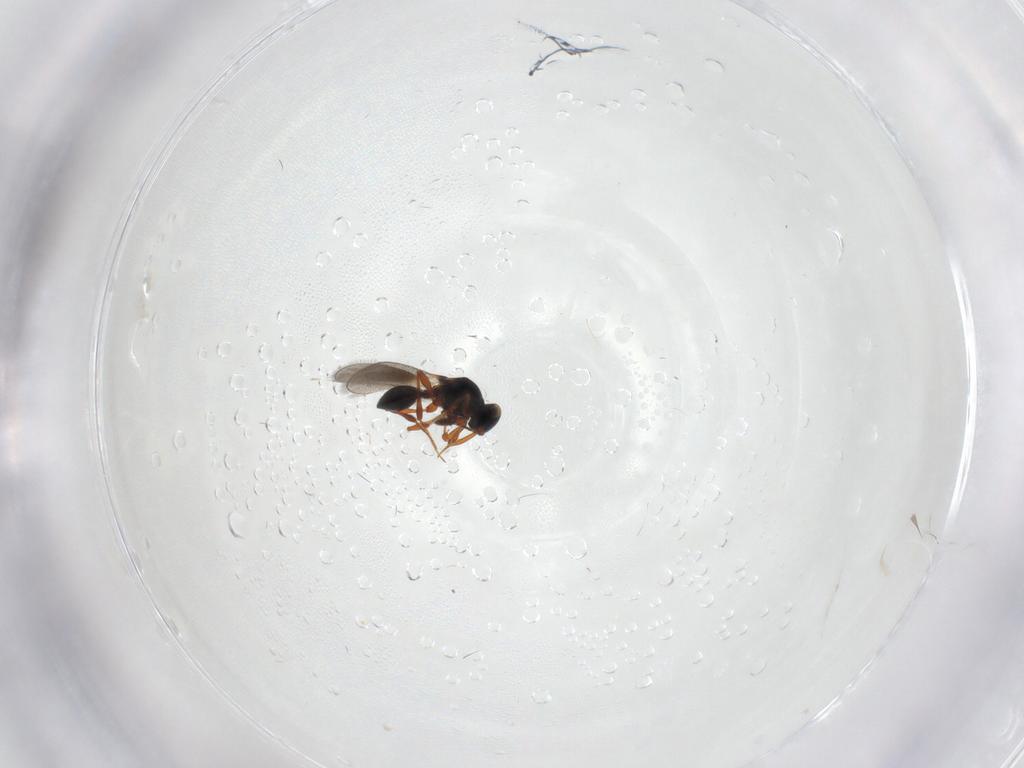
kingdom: Animalia
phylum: Arthropoda
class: Insecta
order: Hymenoptera
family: Platygastridae
